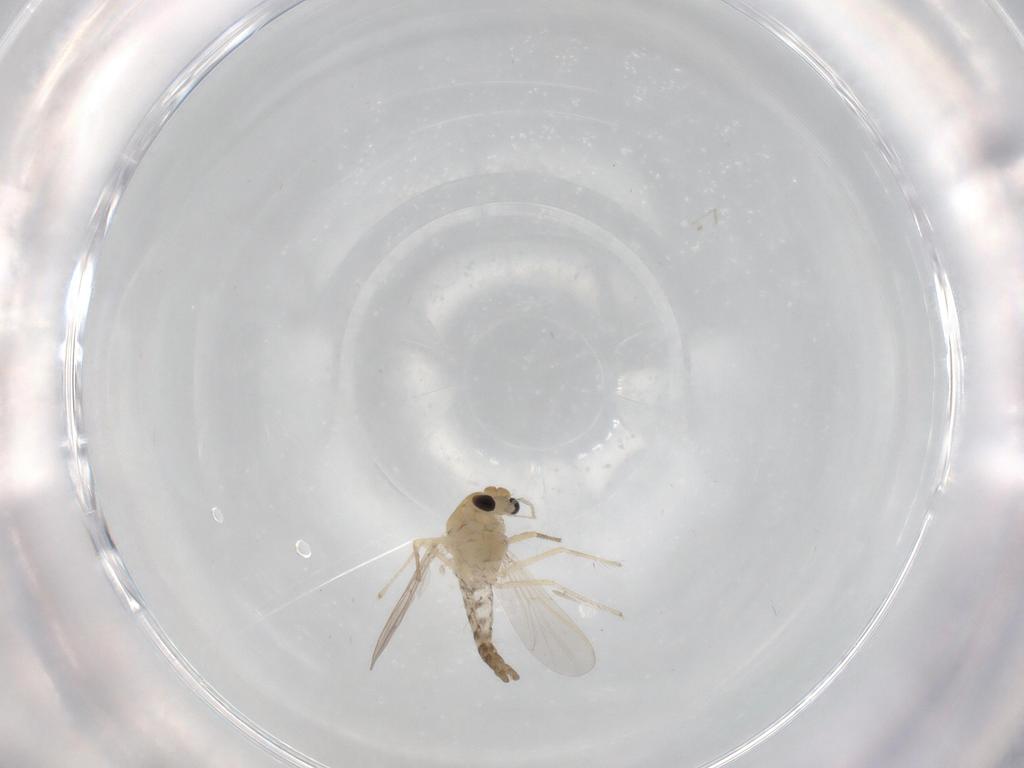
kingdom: Animalia
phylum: Arthropoda
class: Insecta
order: Diptera
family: Chironomidae
